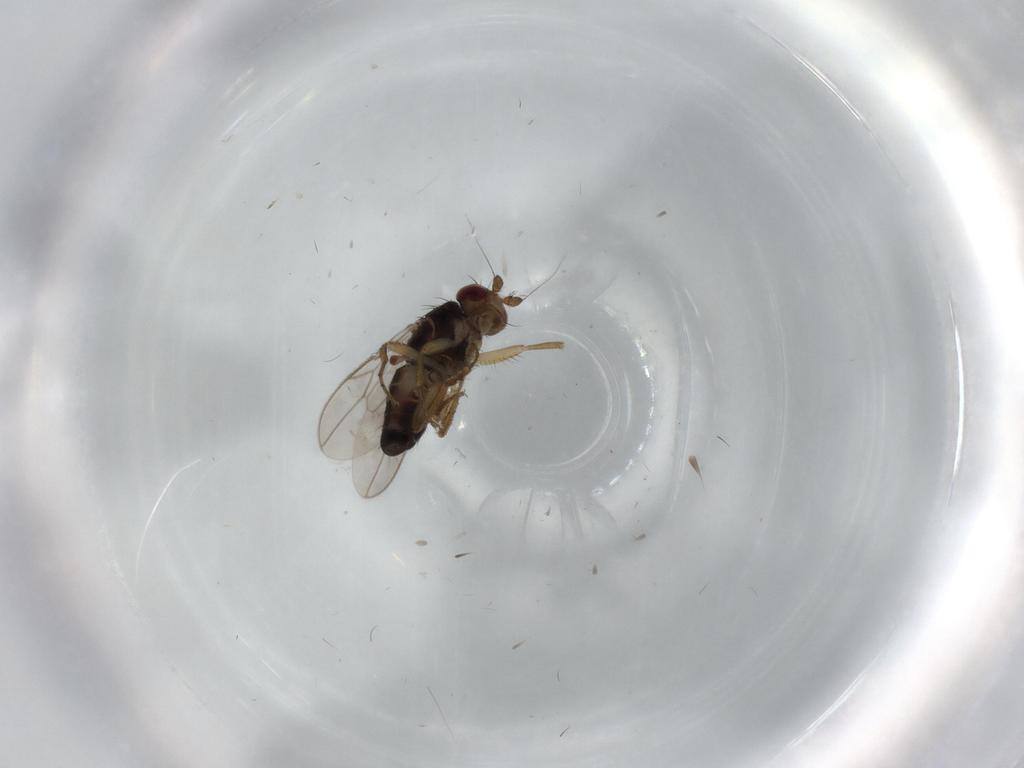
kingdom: Animalia
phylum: Arthropoda
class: Insecta
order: Diptera
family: Sphaeroceridae
